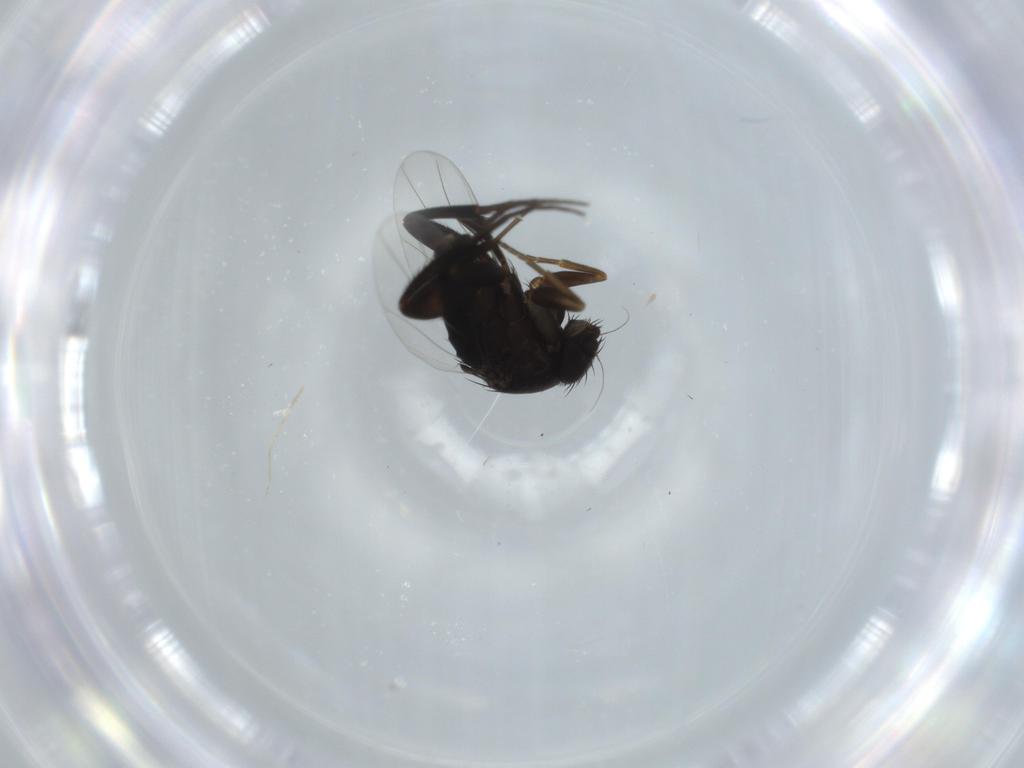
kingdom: Animalia
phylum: Arthropoda
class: Insecta
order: Diptera
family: Phoridae
